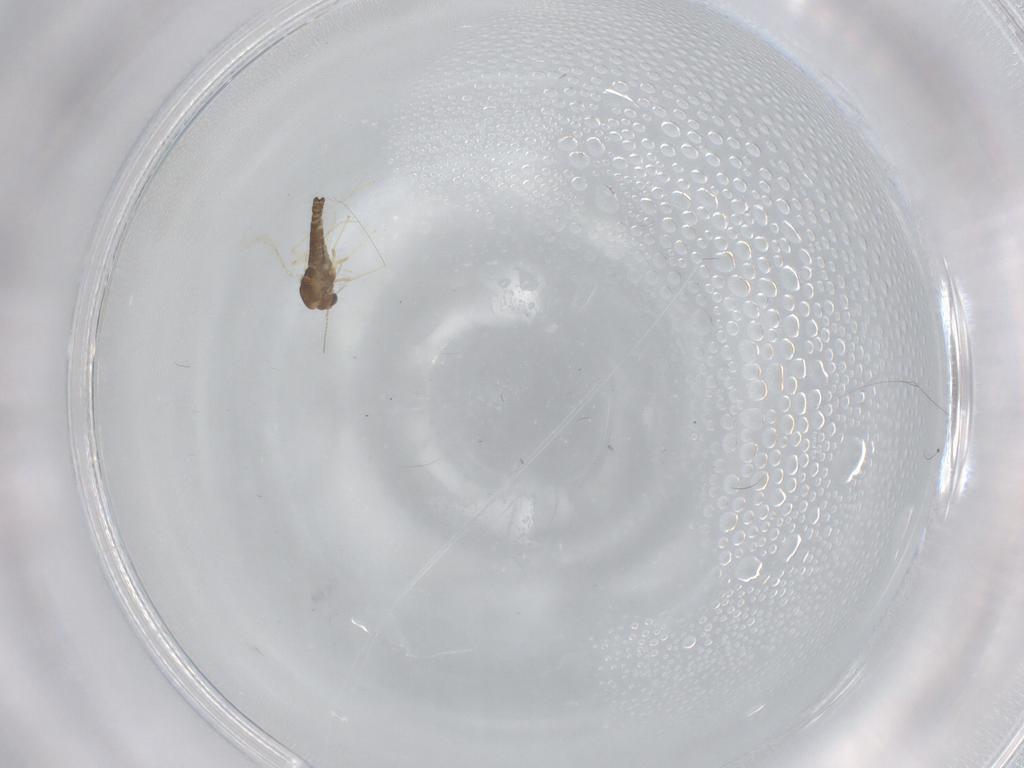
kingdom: Animalia
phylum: Arthropoda
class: Insecta
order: Diptera
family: Chironomidae
